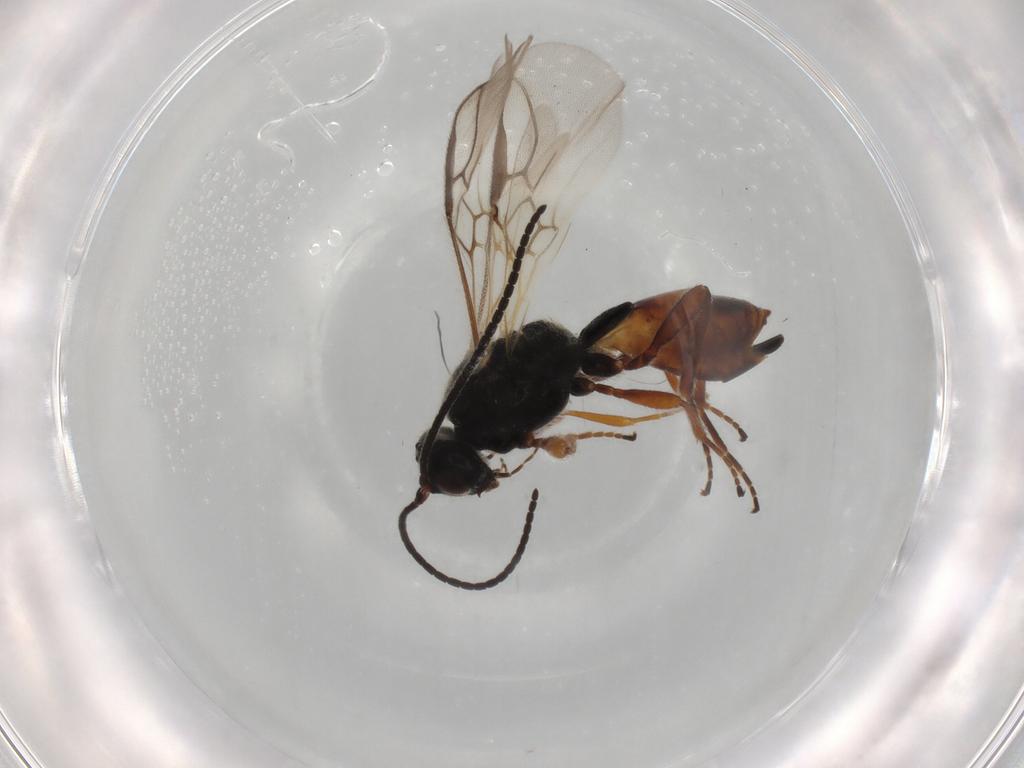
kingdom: Animalia
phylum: Arthropoda
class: Insecta
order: Hymenoptera
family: Braconidae
